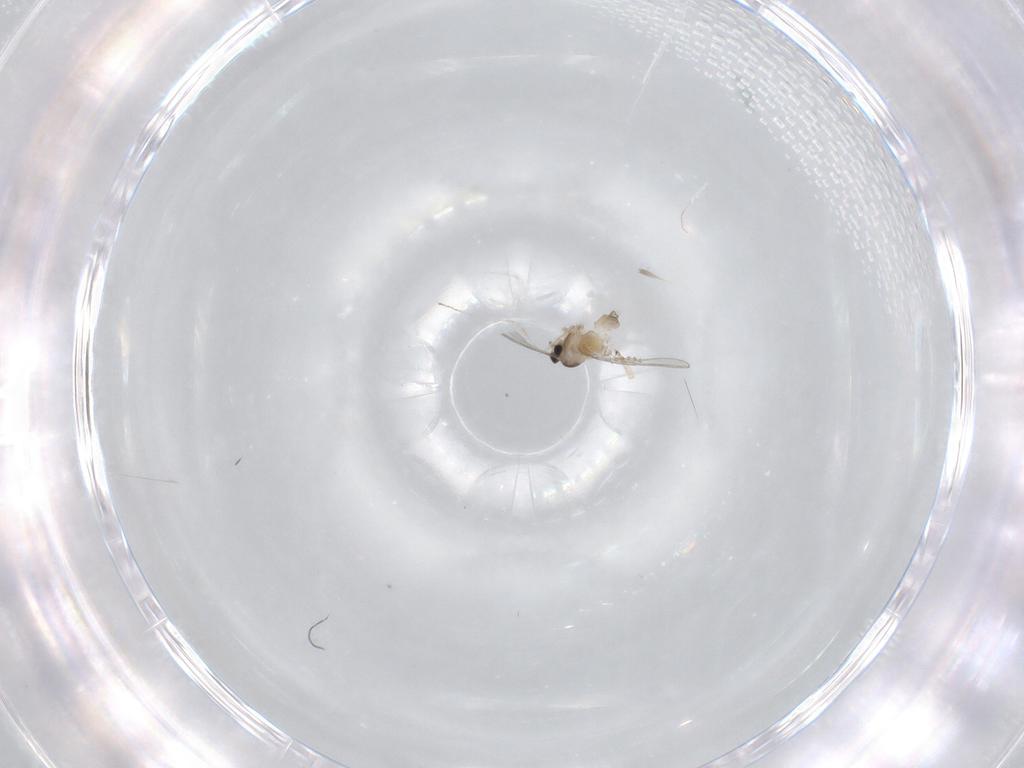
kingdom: Animalia
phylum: Arthropoda
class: Insecta
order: Diptera
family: Cecidomyiidae
